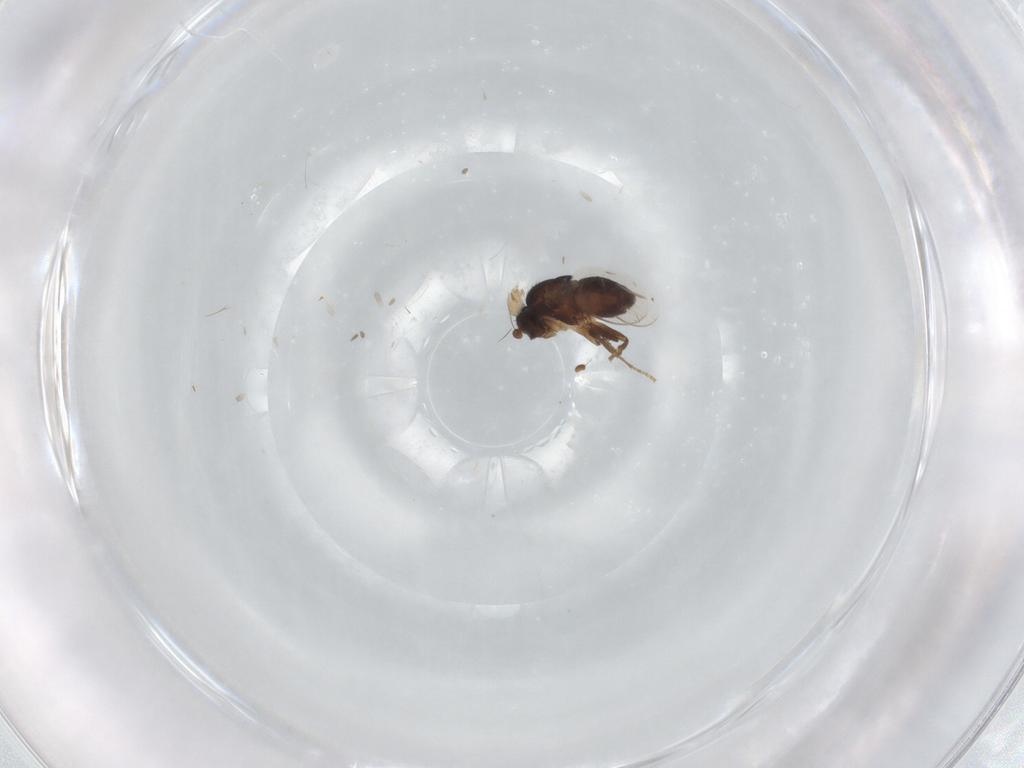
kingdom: Animalia
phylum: Arthropoda
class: Insecta
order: Diptera
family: Sphaeroceridae
